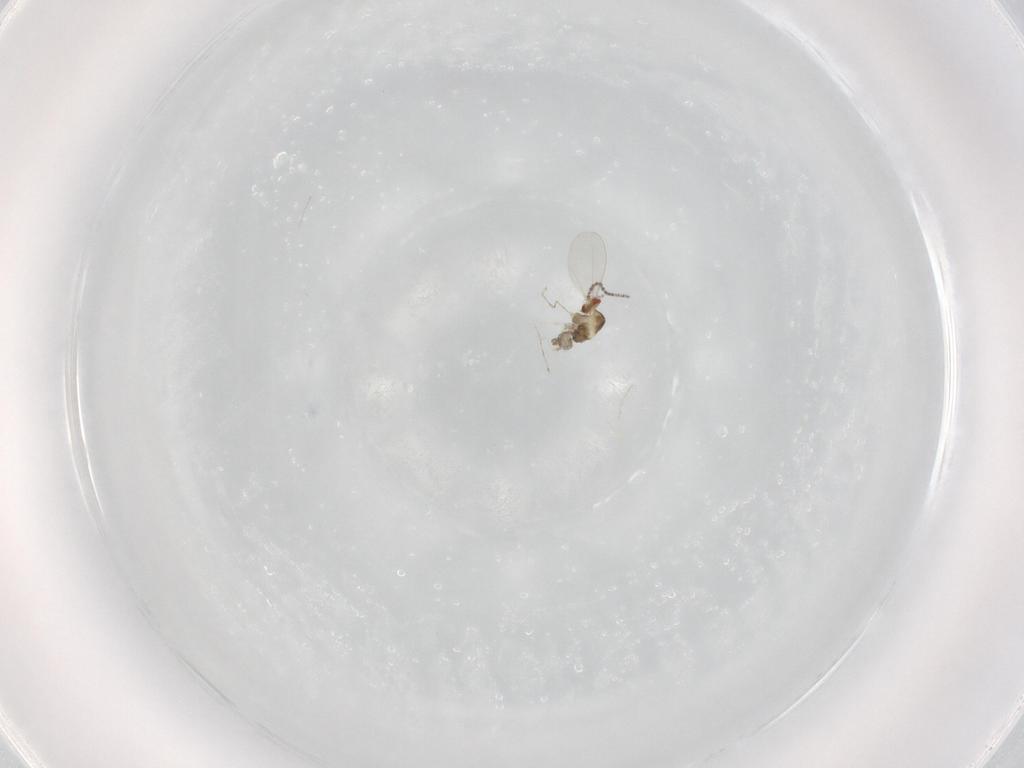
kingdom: Animalia
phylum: Arthropoda
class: Insecta
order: Diptera
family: Cecidomyiidae
